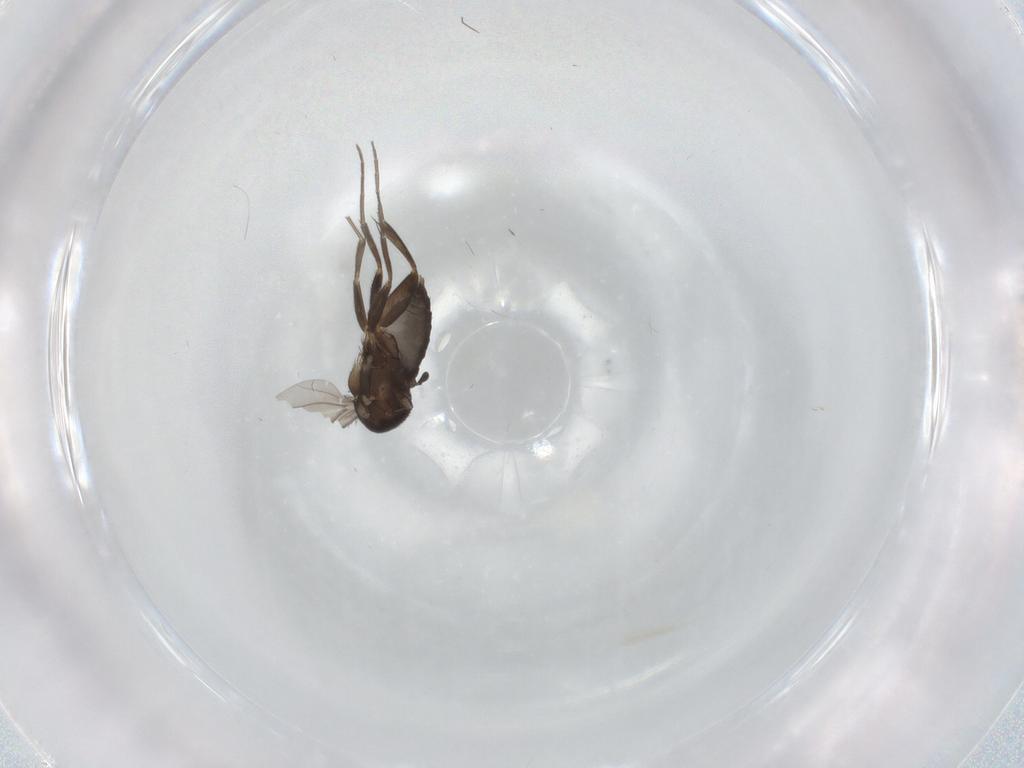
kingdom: Animalia
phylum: Arthropoda
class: Insecta
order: Diptera
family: Phoridae
